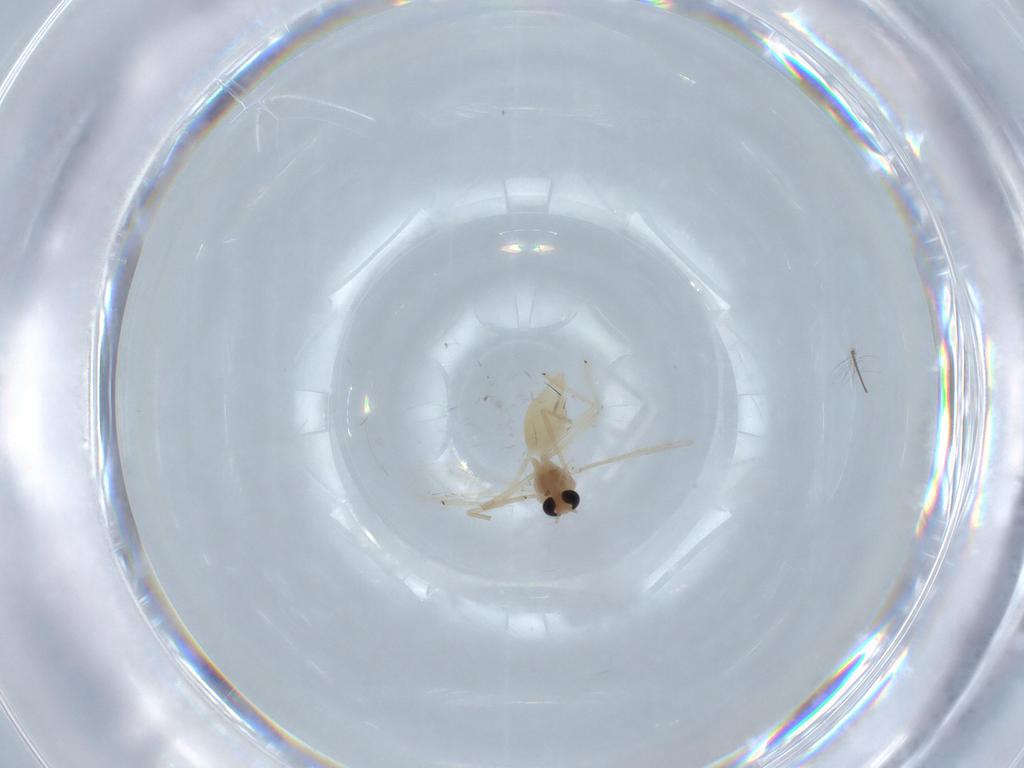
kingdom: Animalia
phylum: Arthropoda
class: Insecta
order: Diptera
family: Chironomidae
